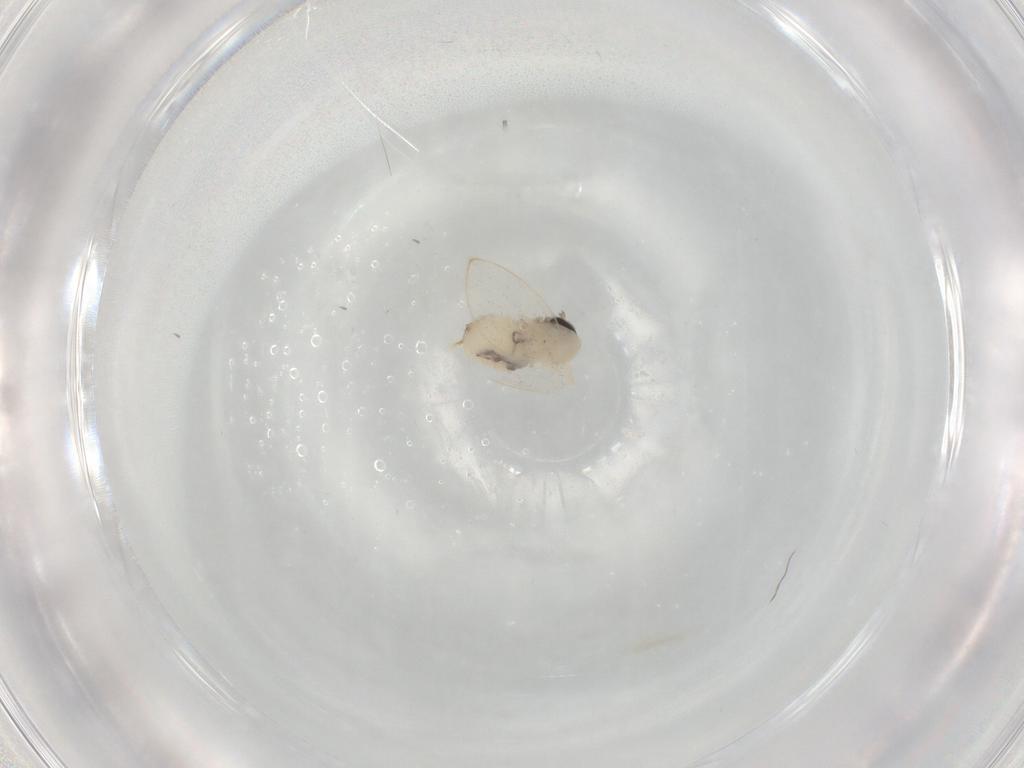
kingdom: Animalia
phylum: Arthropoda
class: Insecta
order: Diptera
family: Psychodidae
